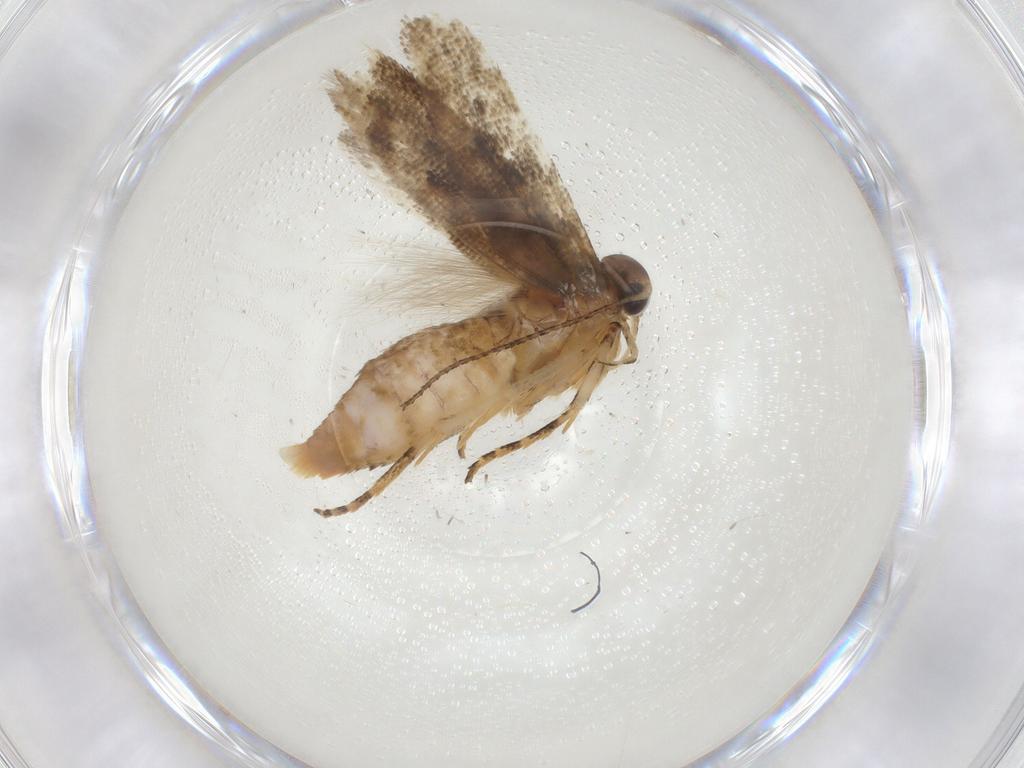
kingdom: Animalia
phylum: Arthropoda
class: Insecta
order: Lepidoptera
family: Gelechiidae
